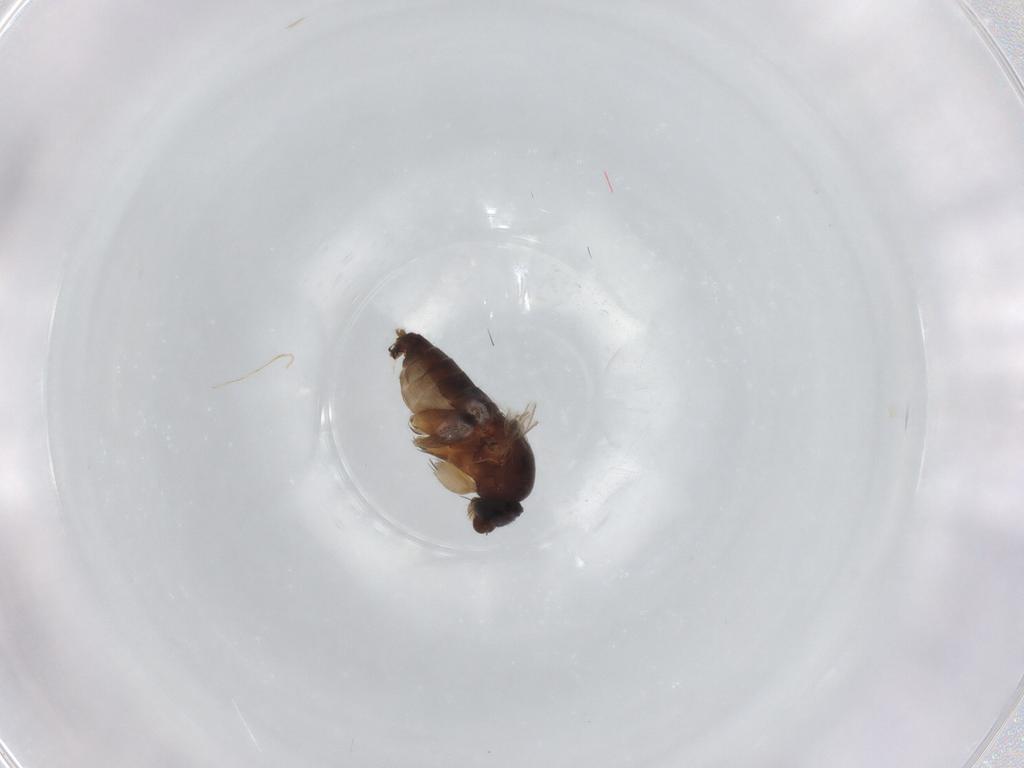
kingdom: Animalia
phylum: Arthropoda
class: Insecta
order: Diptera
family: Phoridae
